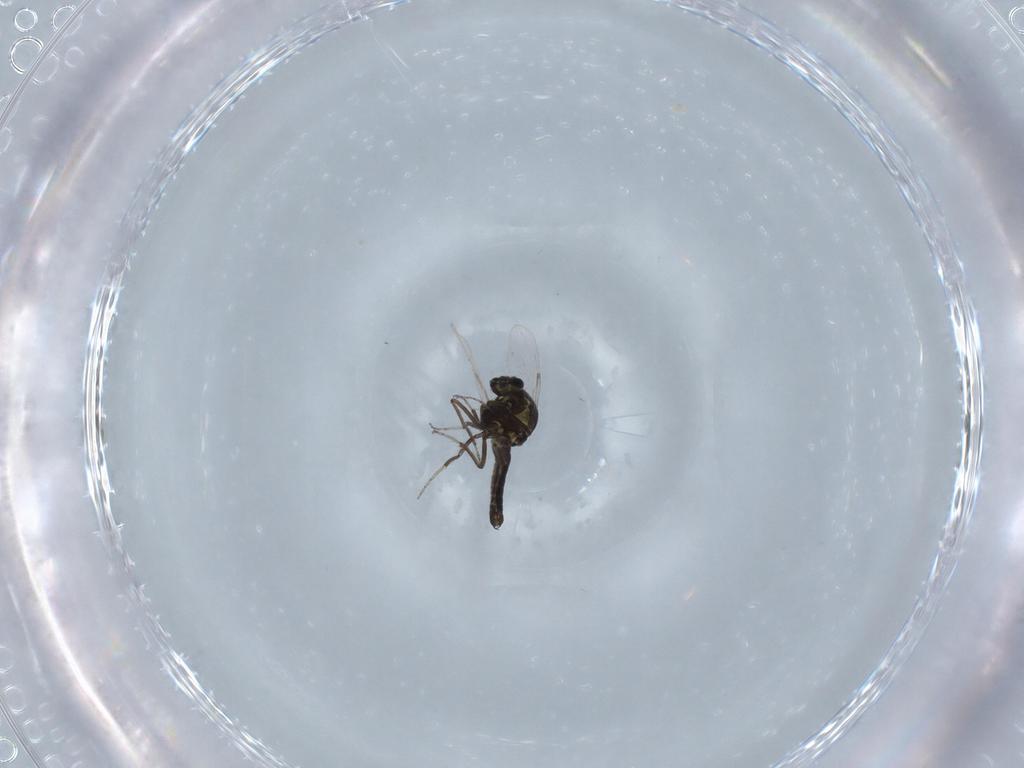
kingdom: Animalia
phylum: Arthropoda
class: Insecta
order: Diptera
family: Ceratopogonidae
